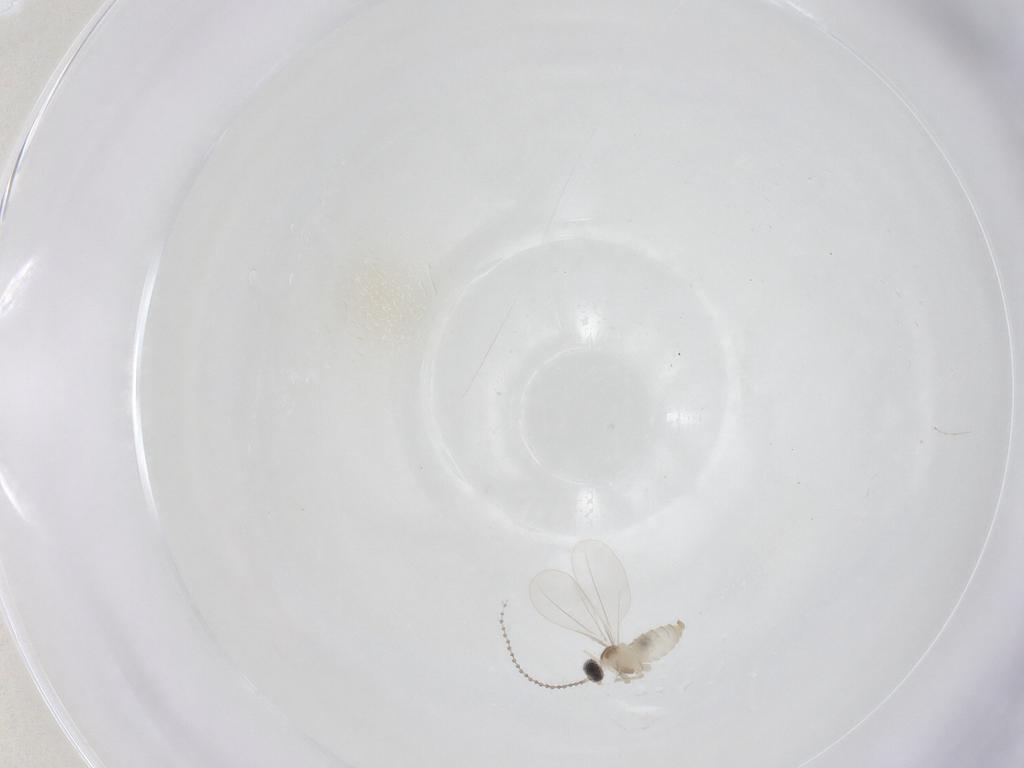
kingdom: Animalia
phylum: Arthropoda
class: Insecta
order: Diptera
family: Cecidomyiidae
